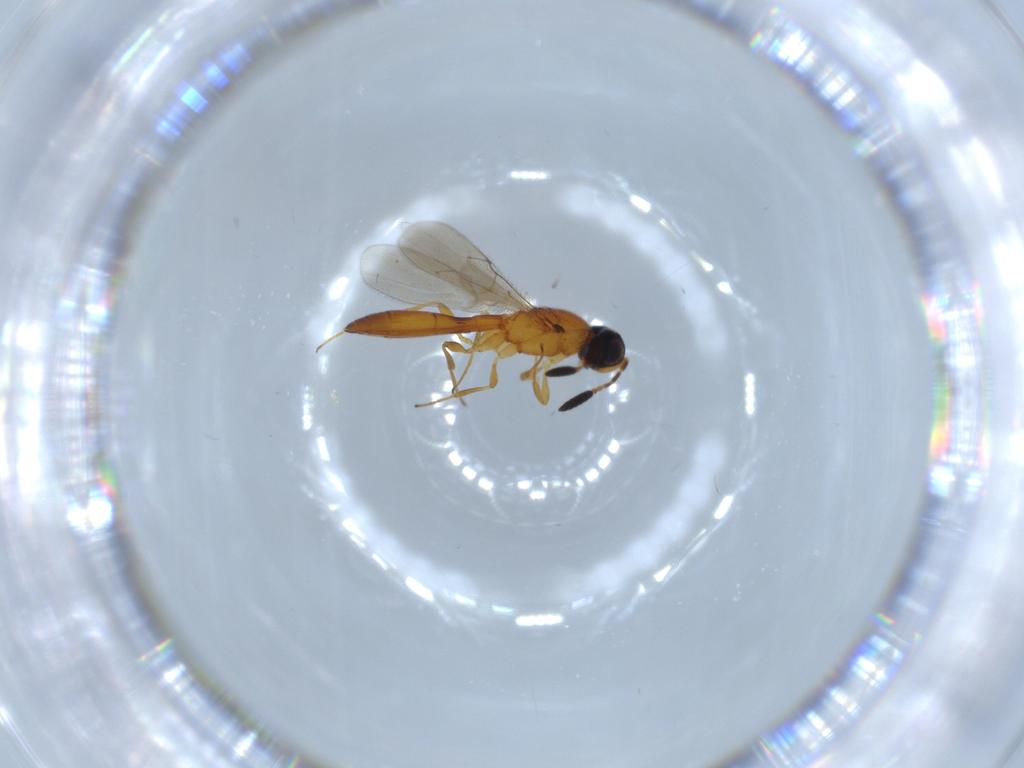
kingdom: Animalia
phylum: Arthropoda
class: Insecta
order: Hymenoptera
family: Scelionidae
